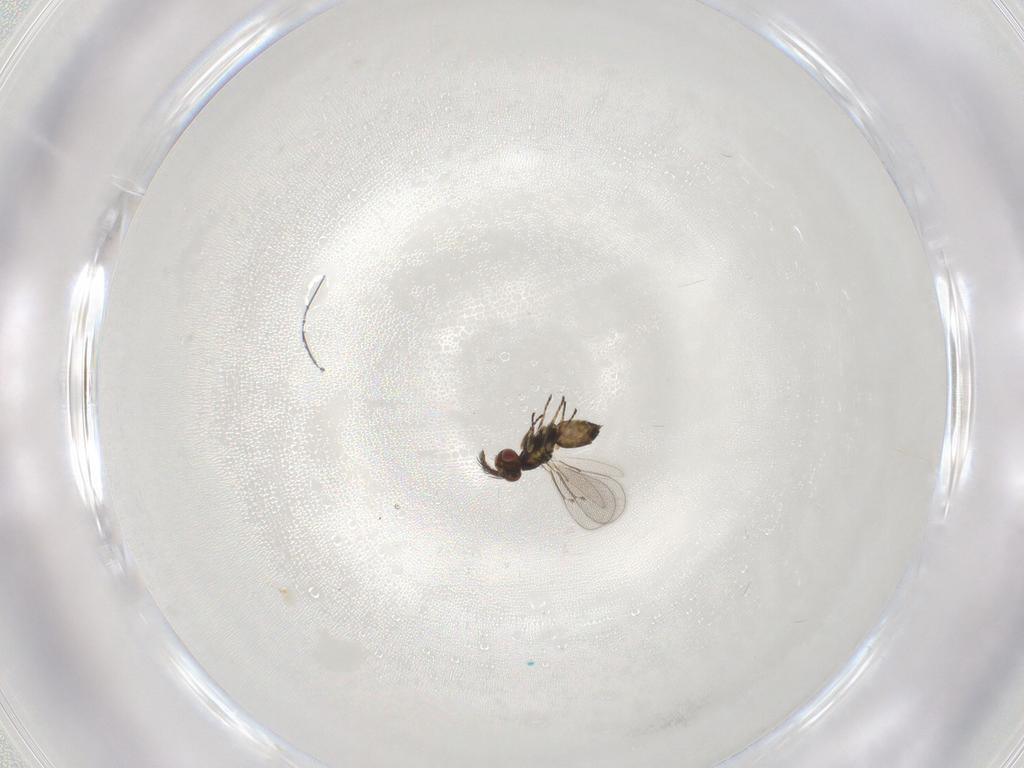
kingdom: Animalia
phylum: Arthropoda
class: Insecta
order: Hymenoptera
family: Eulophidae
